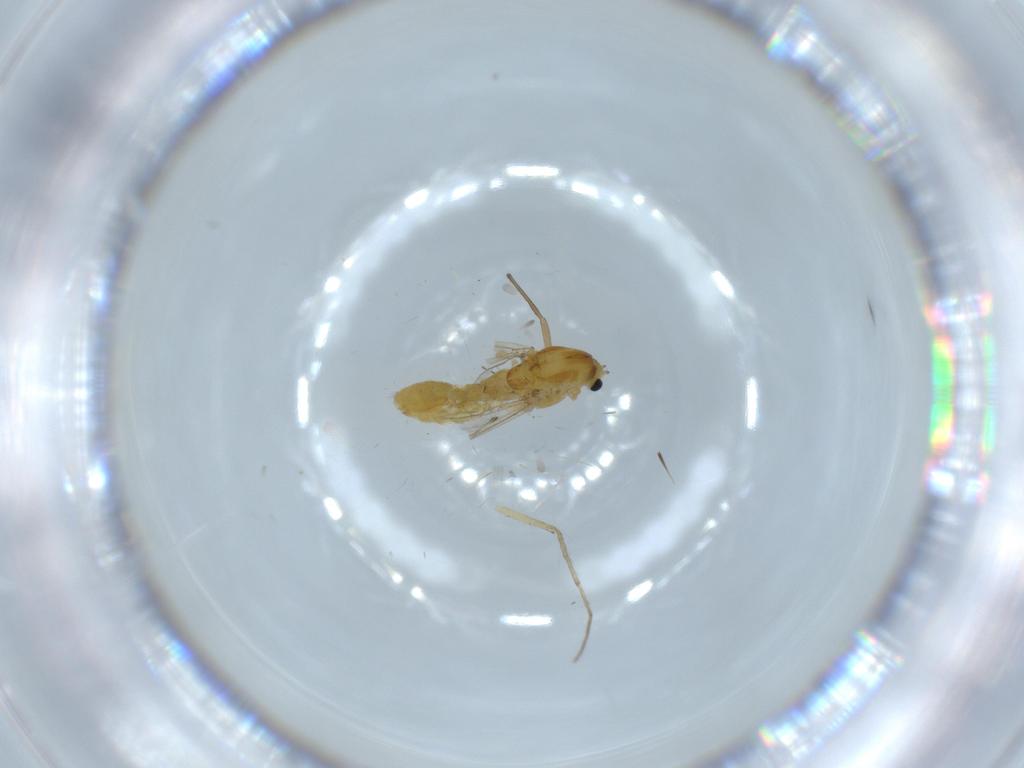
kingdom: Animalia
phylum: Arthropoda
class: Insecta
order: Diptera
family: Chironomidae
